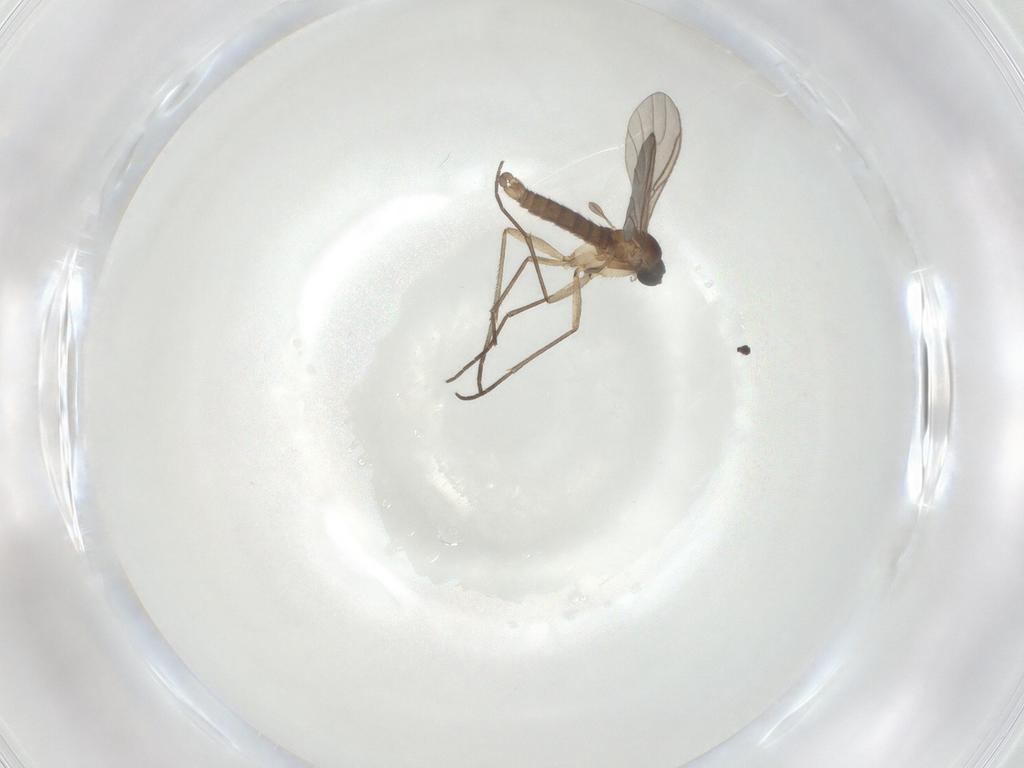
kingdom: Animalia
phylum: Arthropoda
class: Insecta
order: Diptera
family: Sciaridae
